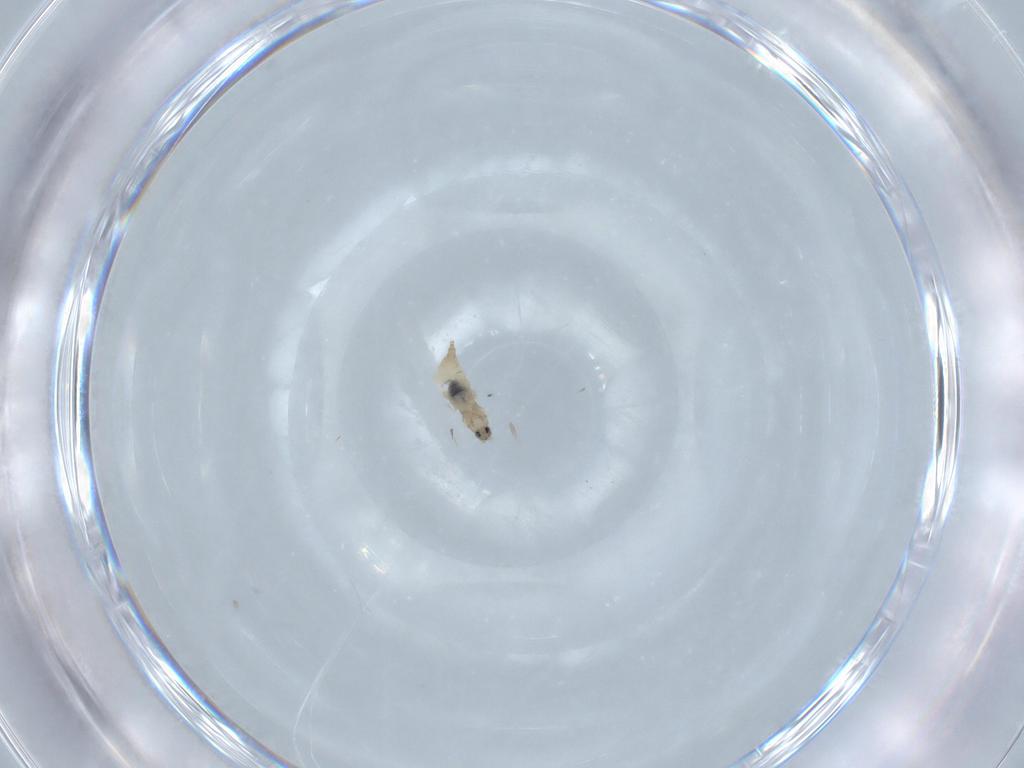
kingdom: Animalia
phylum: Arthropoda
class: Insecta
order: Diptera
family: Cecidomyiidae
